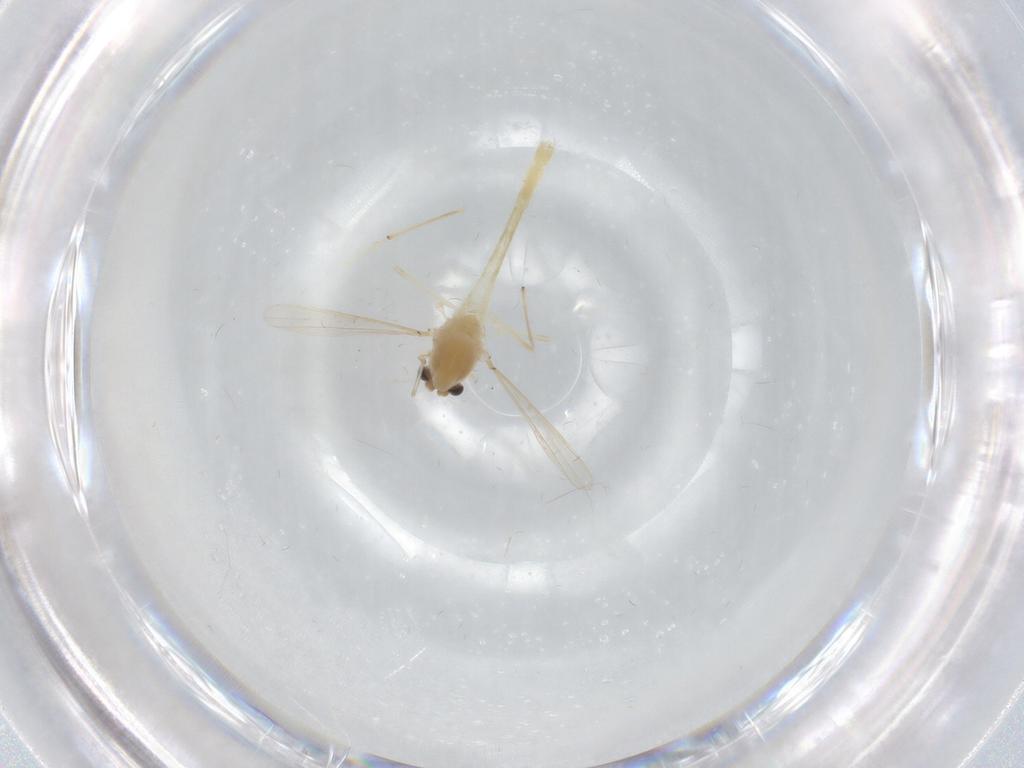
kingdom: Animalia
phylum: Arthropoda
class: Insecta
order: Diptera
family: Chironomidae
